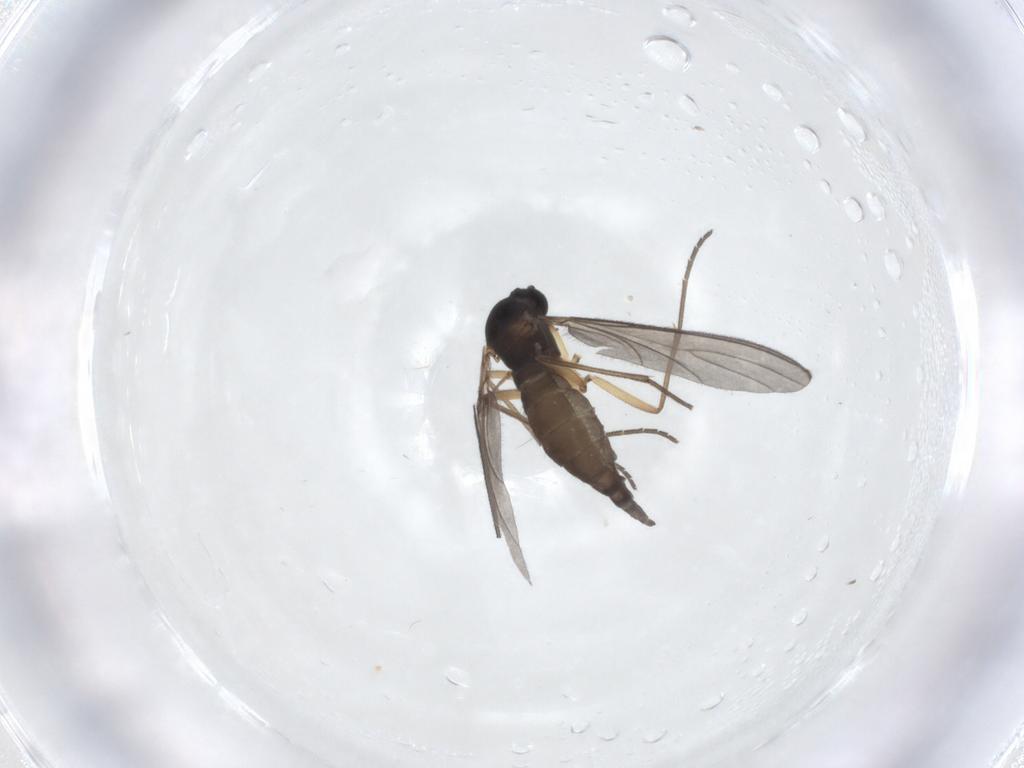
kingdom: Animalia
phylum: Arthropoda
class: Insecta
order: Diptera
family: Sciaridae
